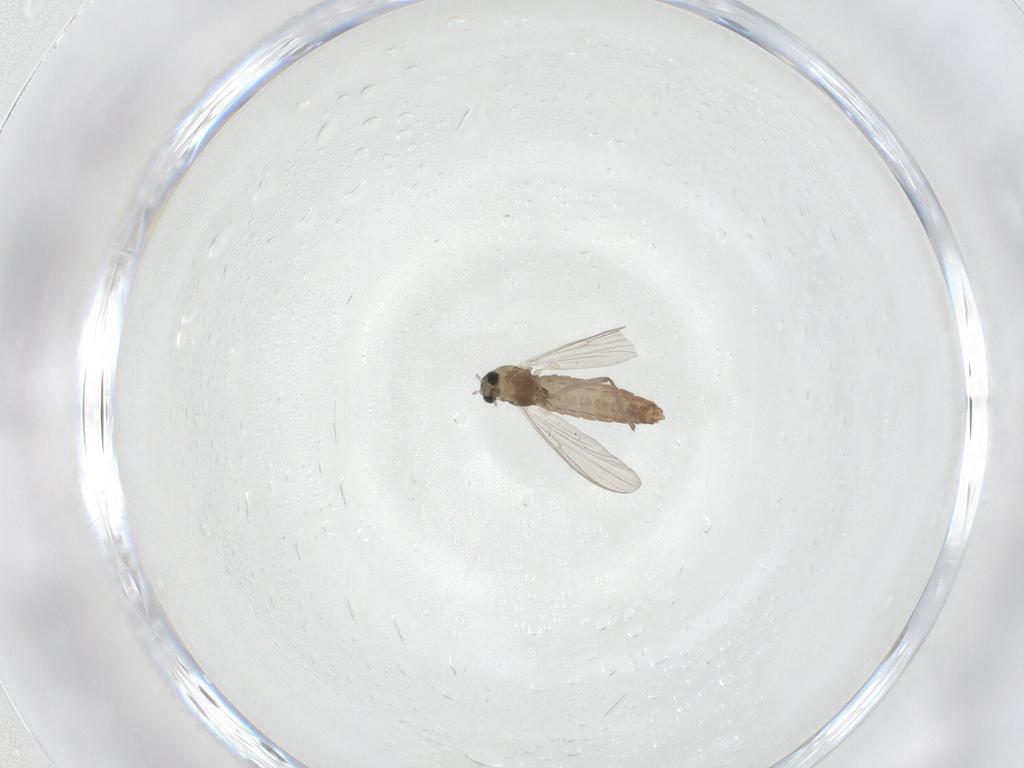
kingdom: Animalia
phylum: Arthropoda
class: Insecta
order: Diptera
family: Chironomidae
